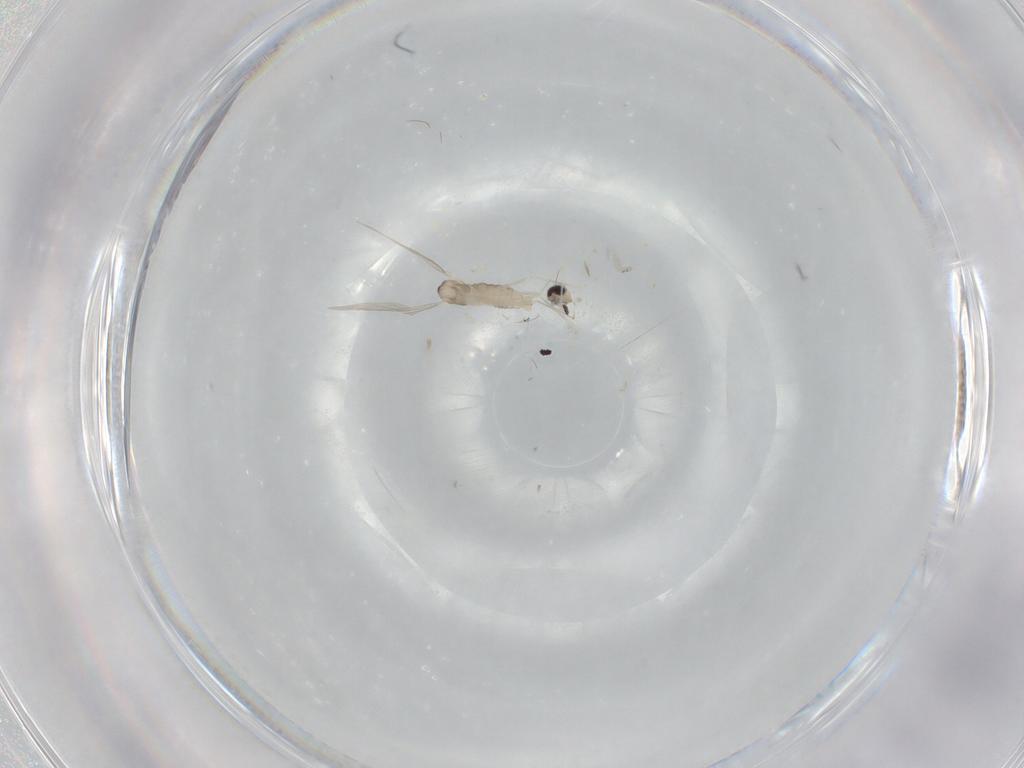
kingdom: Animalia
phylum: Arthropoda
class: Insecta
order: Diptera
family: Cecidomyiidae
